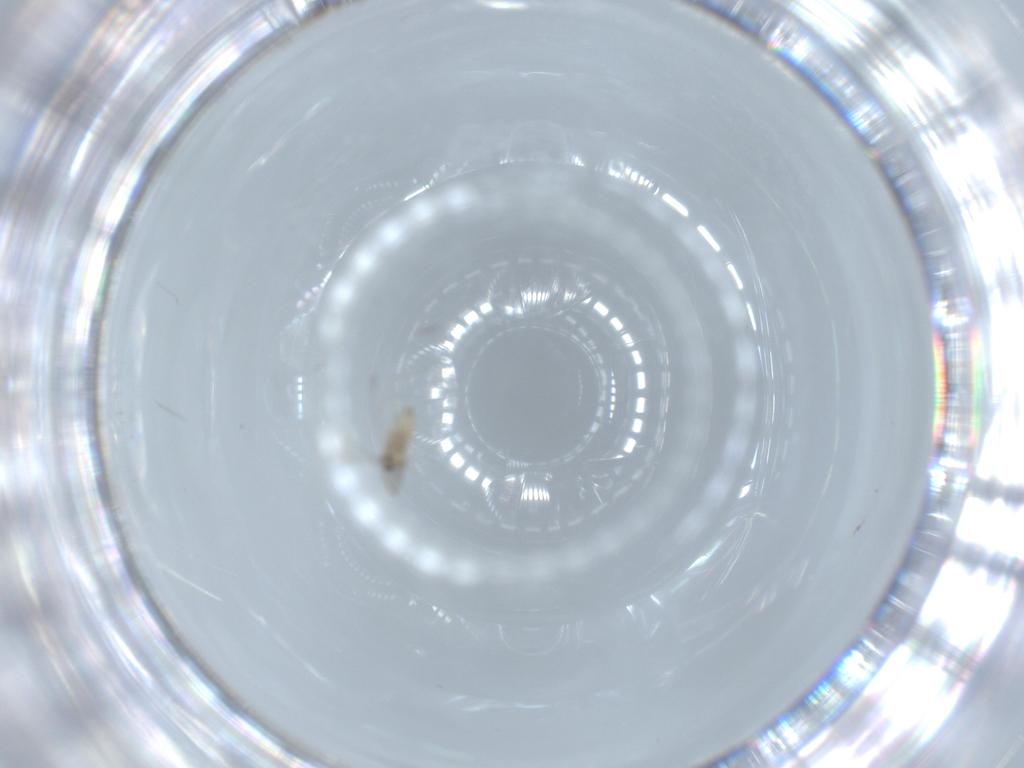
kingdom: Animalia
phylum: Arthropoda
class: Insecta
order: Diptera
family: Cecidomyiidae
